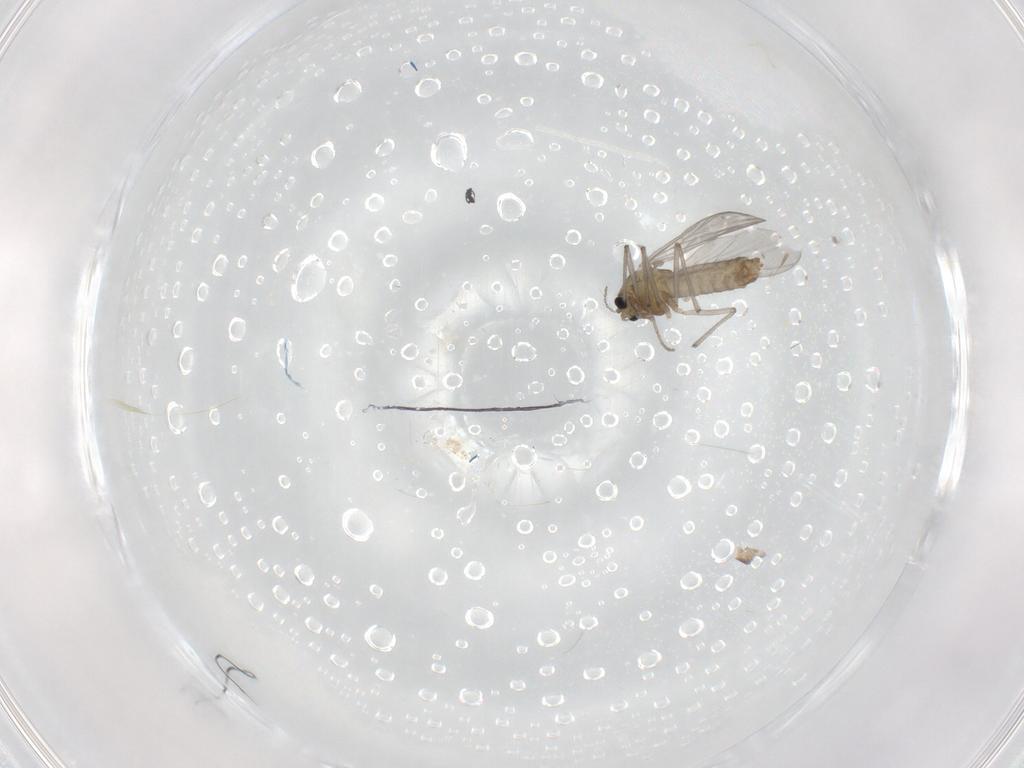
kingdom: Animalia
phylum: Arthropoda
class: Insecta
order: Diptera
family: Chironomidae
